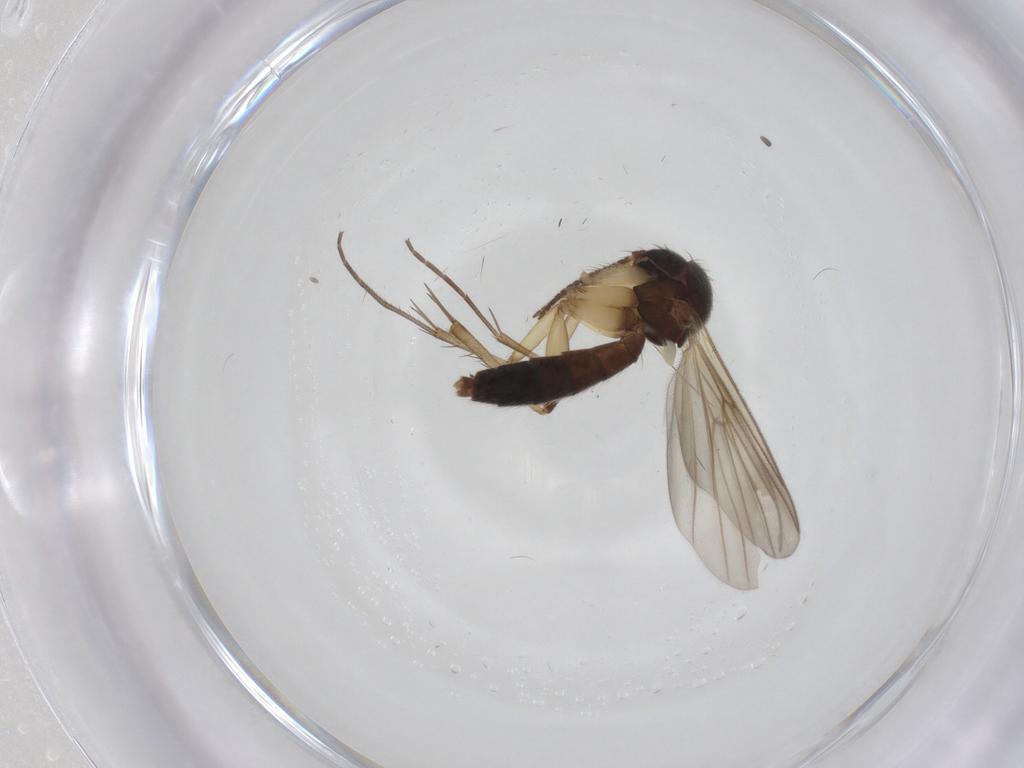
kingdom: Animalia
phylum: Arthropoda
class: Insecta
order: Diptera
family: Mycetophilidae
